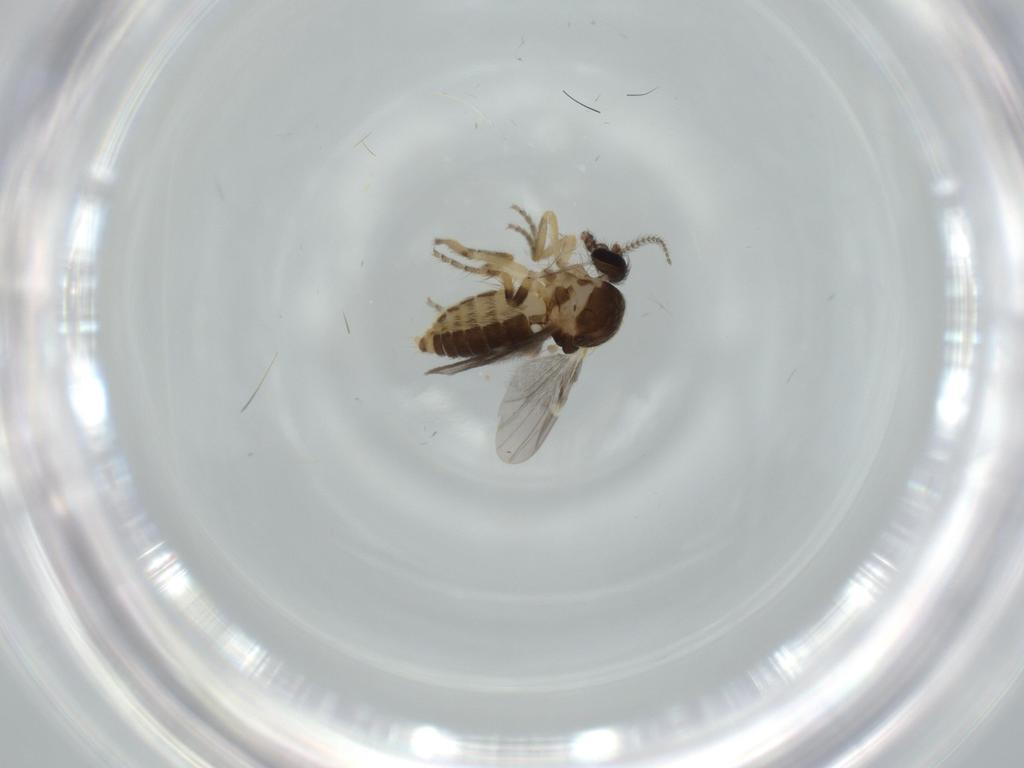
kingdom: Animalia
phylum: Arthropoda
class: Insecta
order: Diptera
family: Ceratopogonidae
